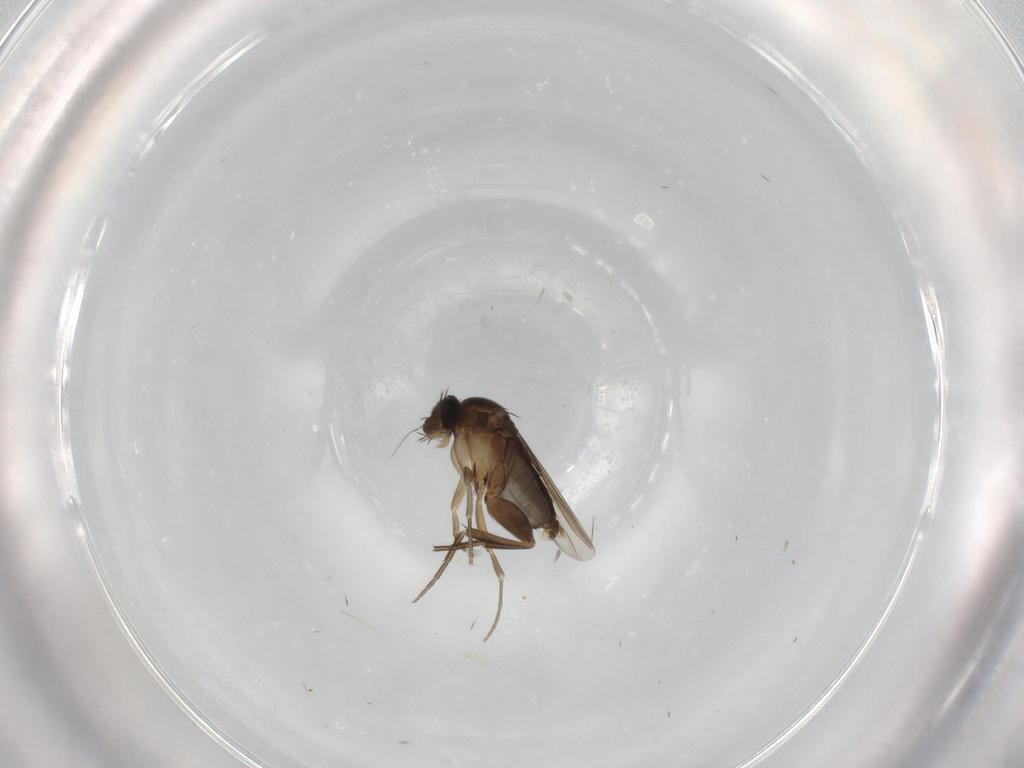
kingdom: Animalia
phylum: Arthropoda
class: Insecta
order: Diptera
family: Phoridae
